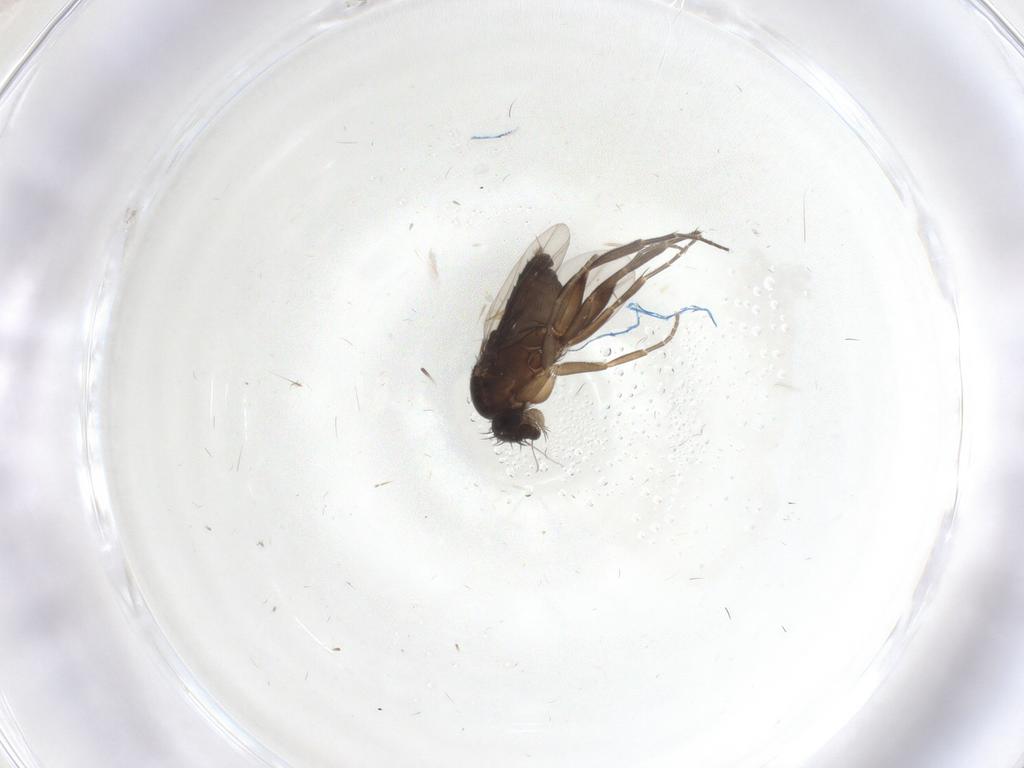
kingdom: Animalia
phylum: Arthropoda
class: Insecta
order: Diptera
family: Phoridae
